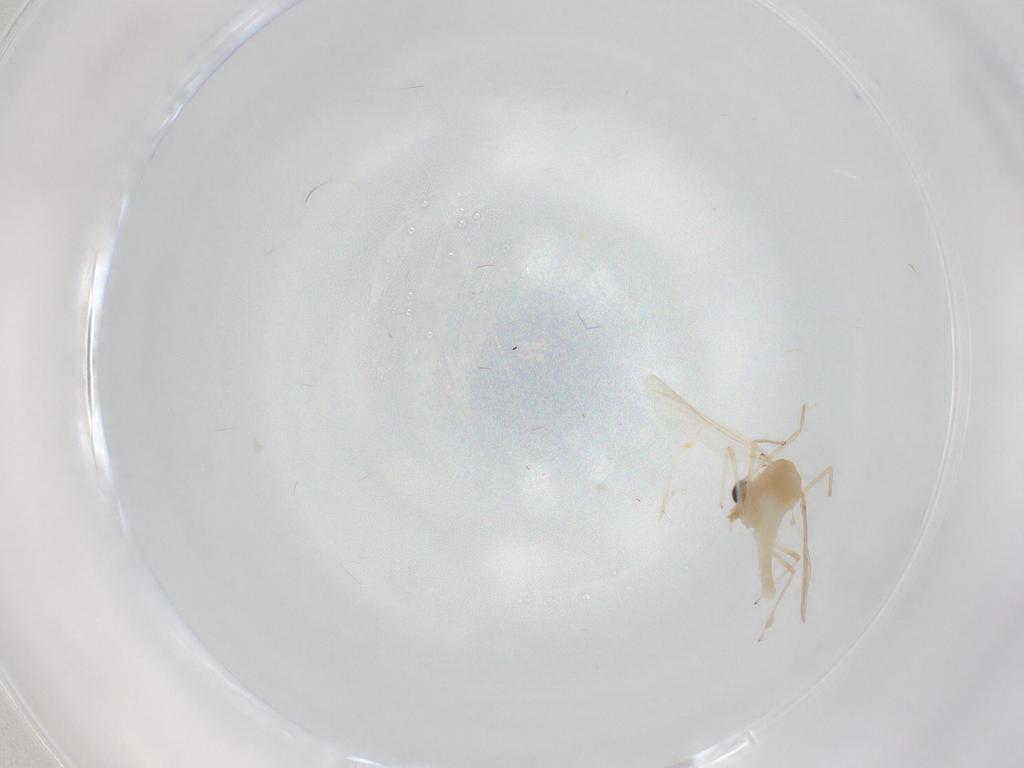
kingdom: Animalia
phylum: Arthropoda
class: Insecta
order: Diptera
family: Chironomidae
